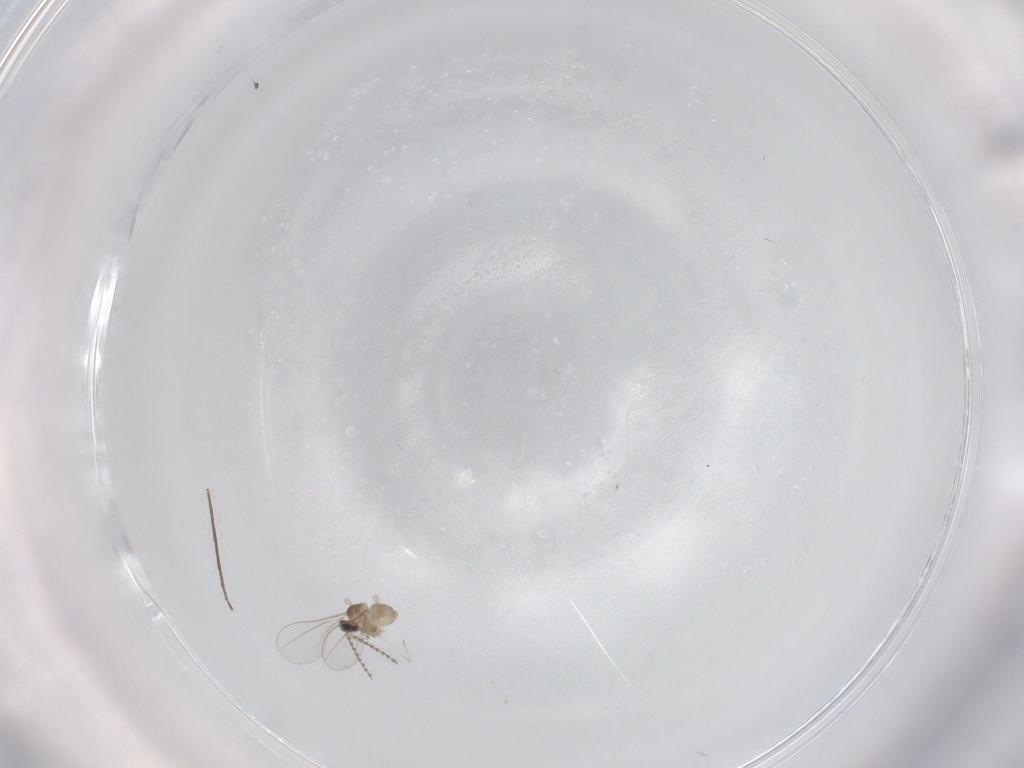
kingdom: Animalia
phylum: Arthropoda
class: Insecta
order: Diptera
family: Cecidomyiidae
